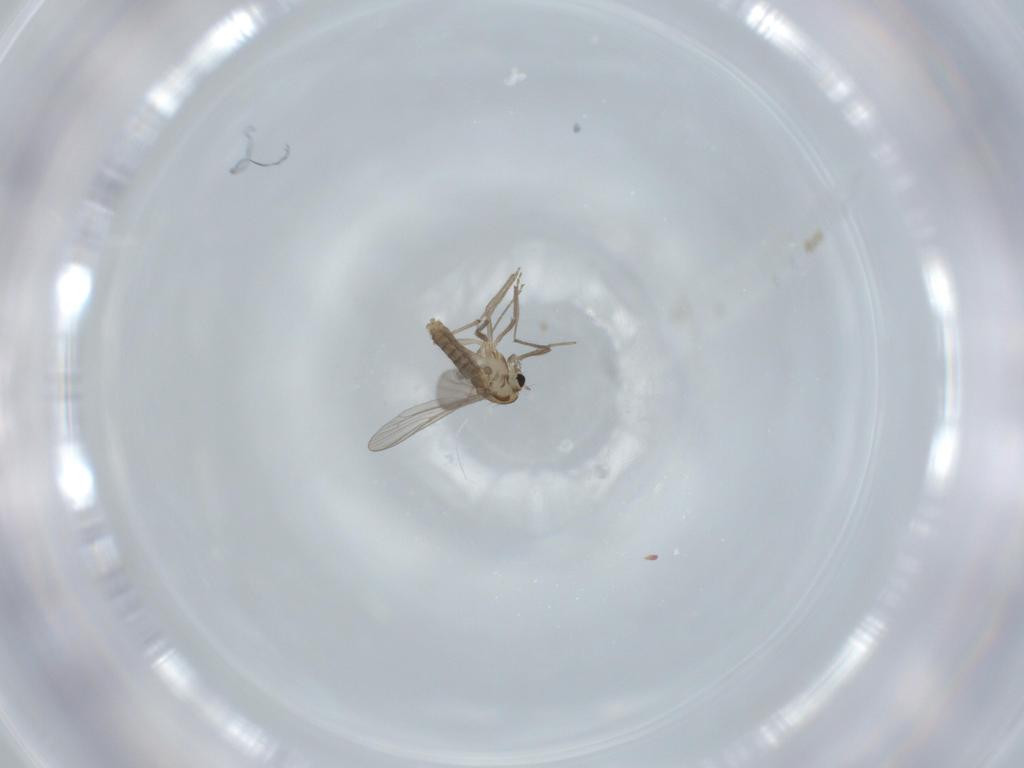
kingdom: Animalia
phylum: Arthropoda
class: Insecta
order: Diptera
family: Chironomidae
